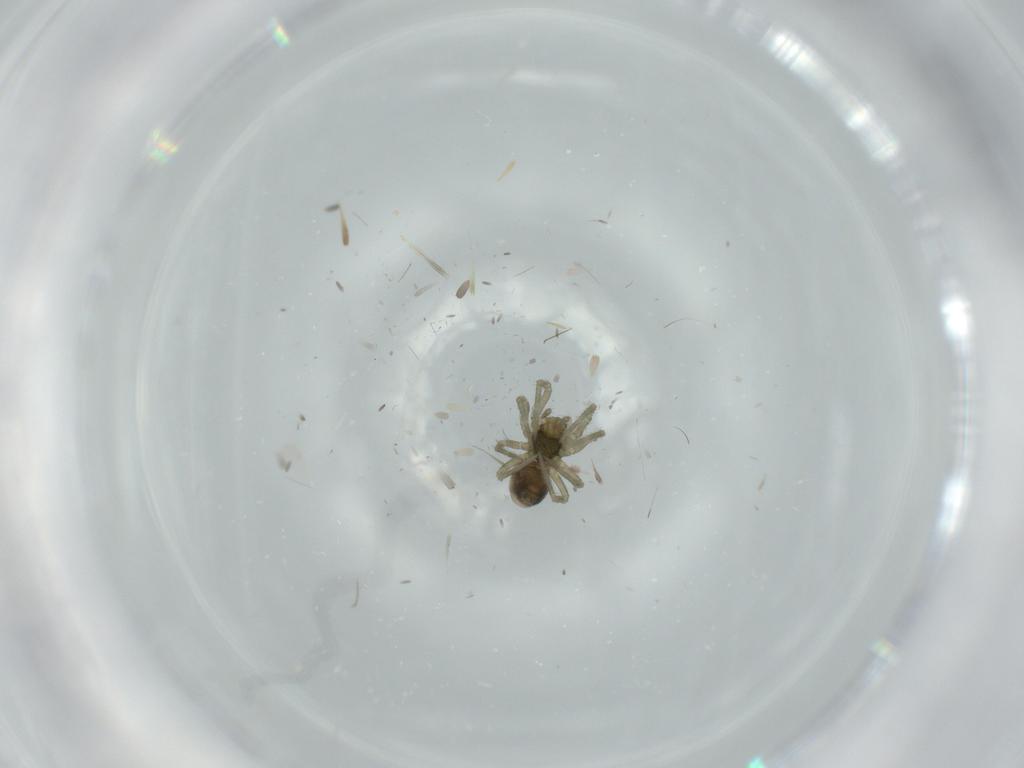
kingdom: Animalia
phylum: Arthropoda
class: Arachnida
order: Araneae
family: Linyphiidae
